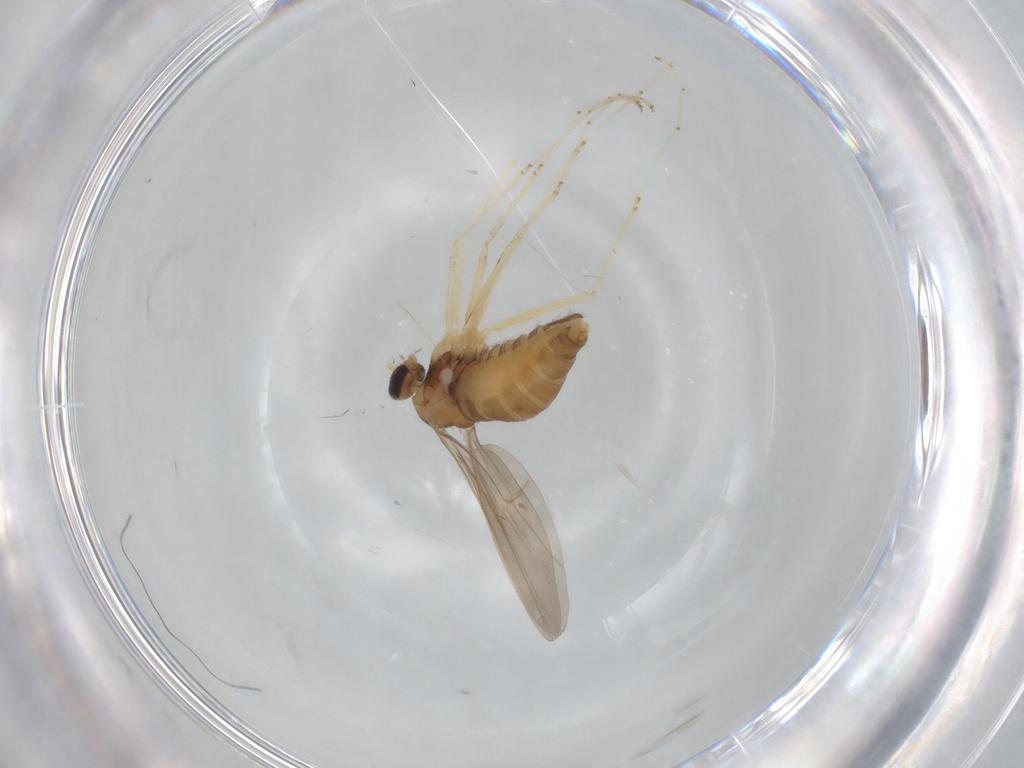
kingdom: Animalia
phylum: Arthropoda
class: Insecta
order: Diptera
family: Cecidomyiidae
